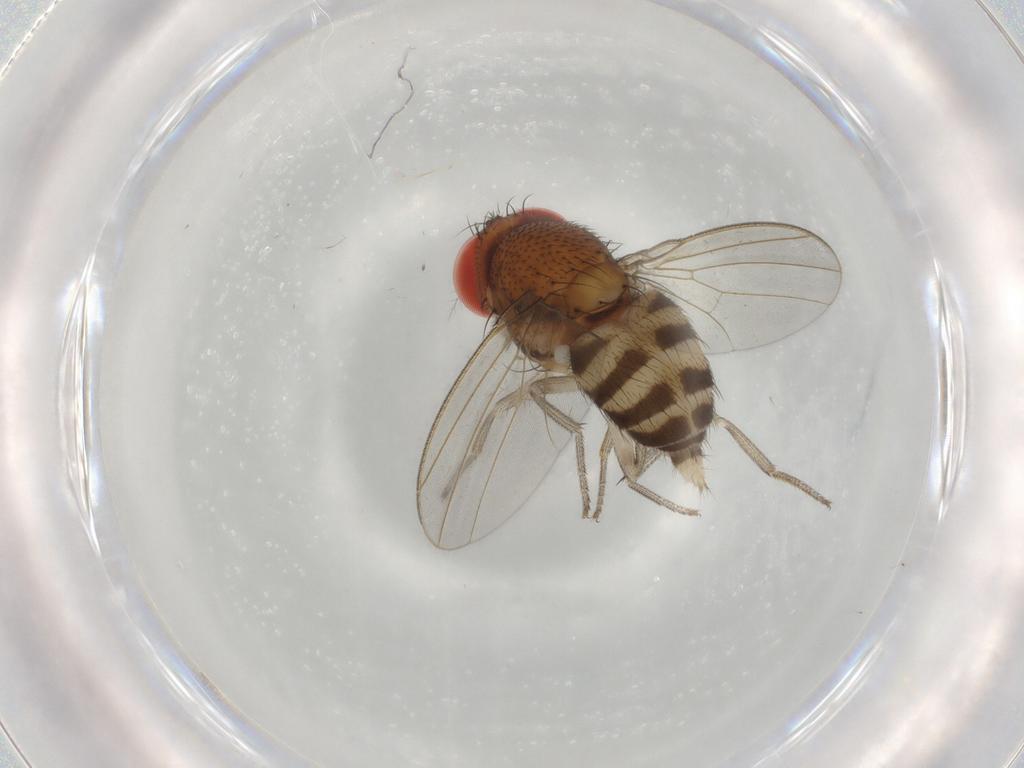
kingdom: Animalia
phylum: Arthropoda
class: Insecta
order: Diptera
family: Drosophilidae
